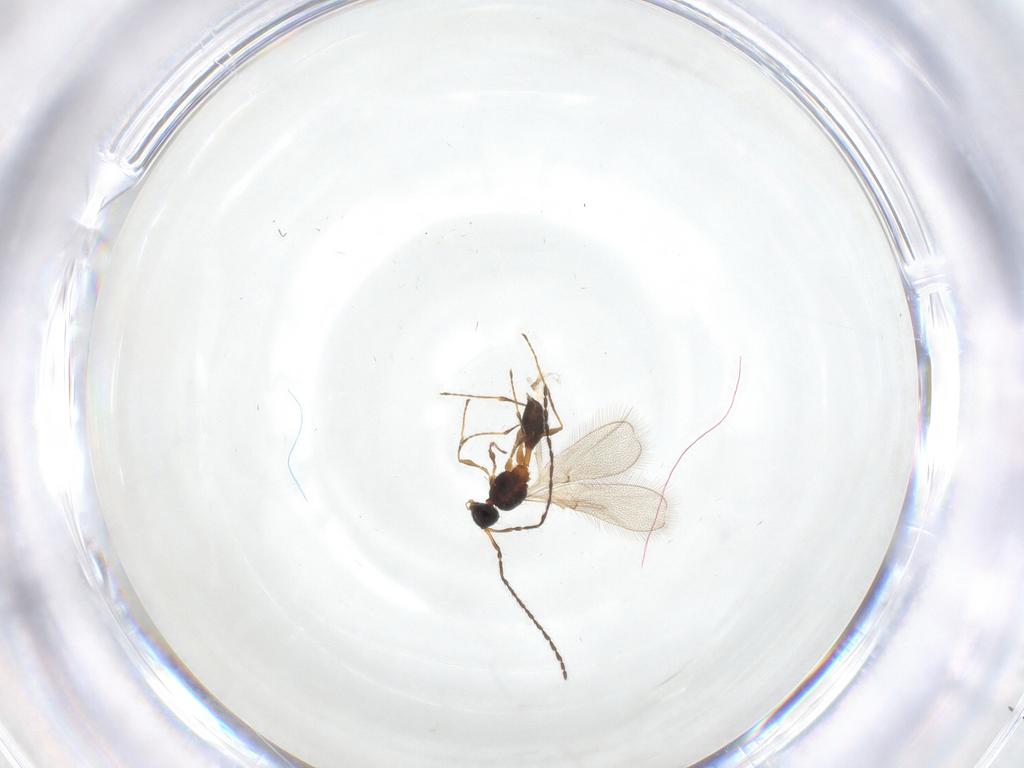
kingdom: Animalia
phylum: Arthropoda
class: Insecta
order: Hymenoptera
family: Diapriidae
